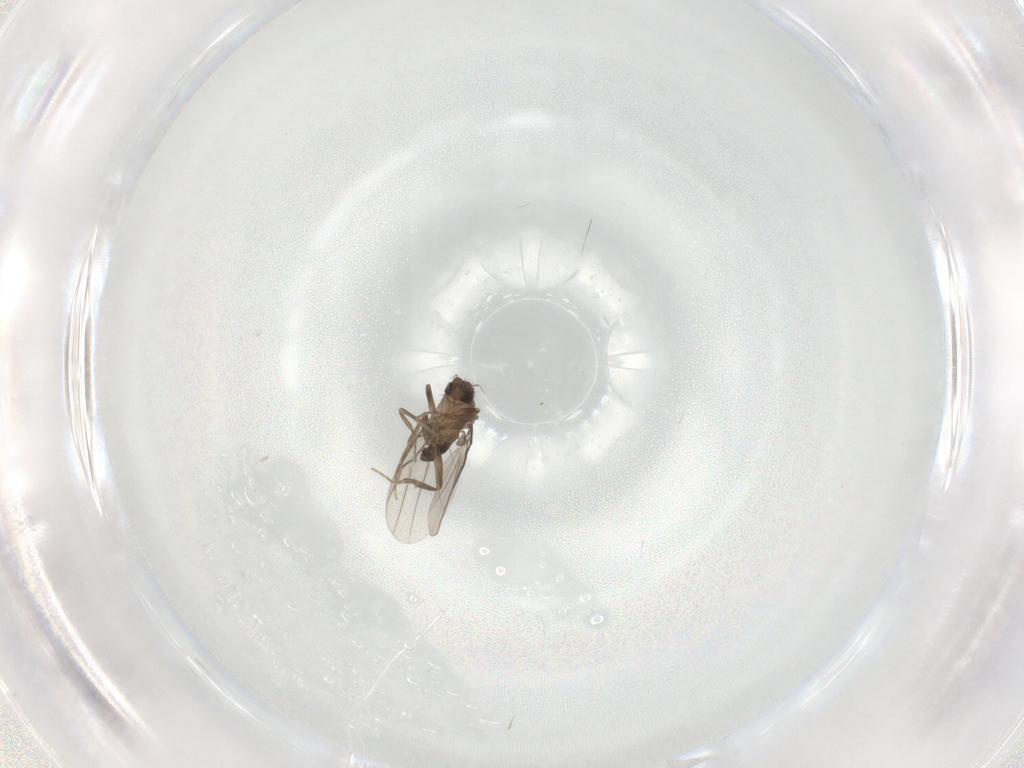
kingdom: Animalia
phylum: Arthropoda
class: Insecta
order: Diptera
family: Phoridae
